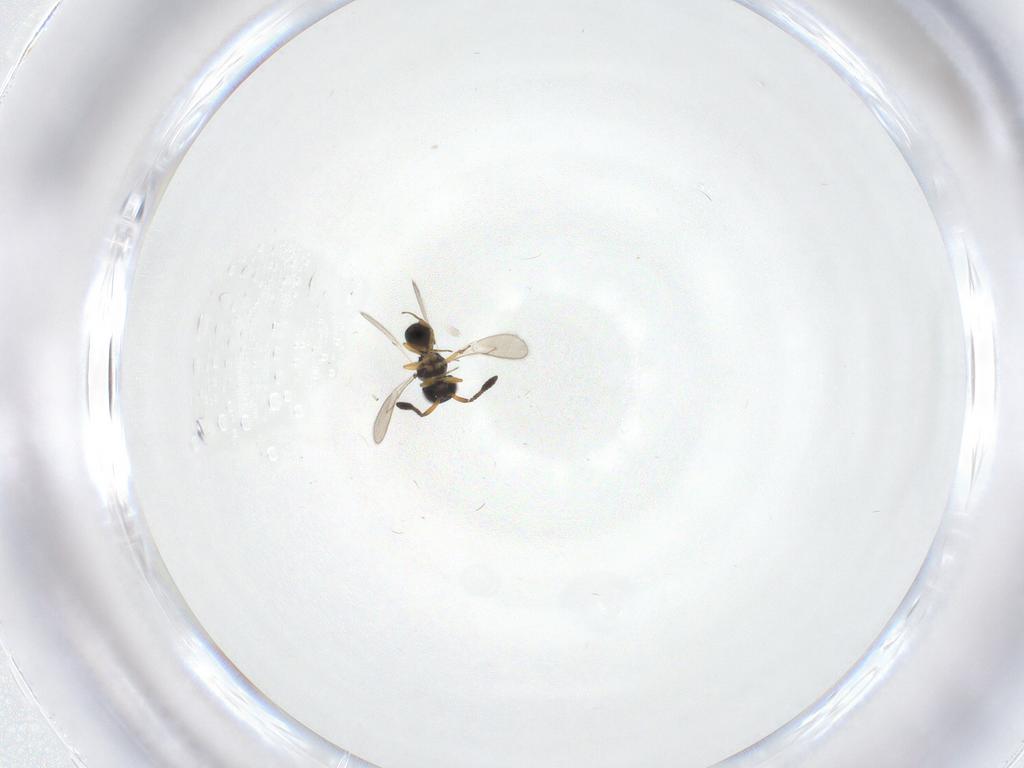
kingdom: Animalia
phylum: Arthropoda
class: Insecta
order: Hymenoptera
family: Scelionidae
